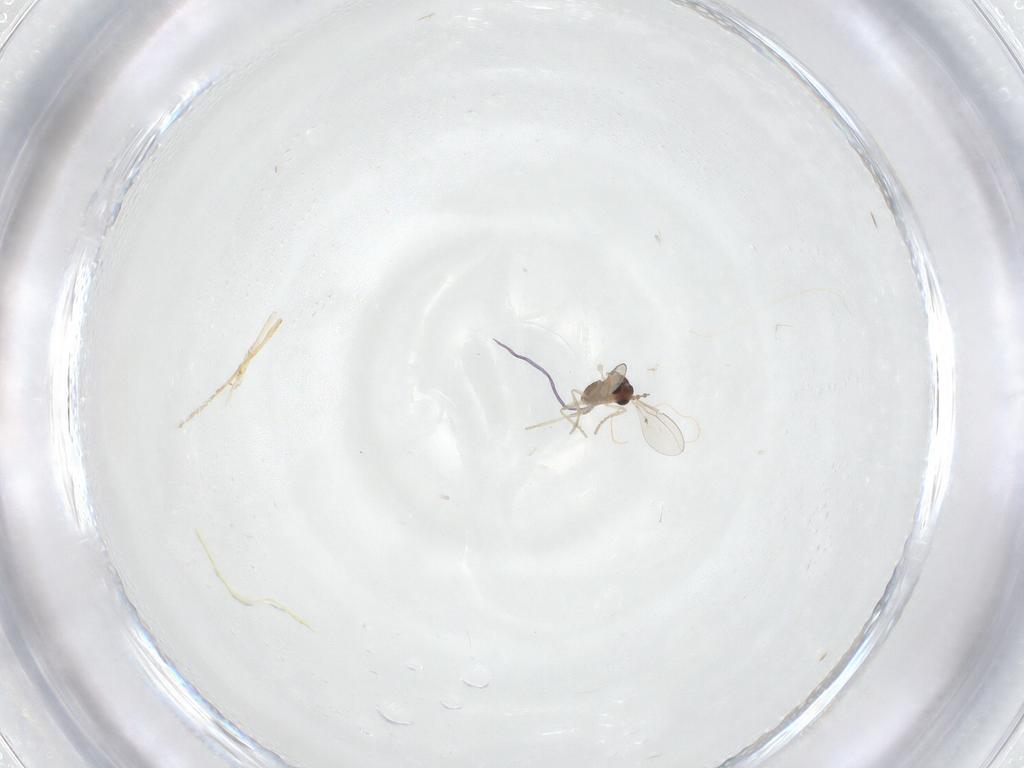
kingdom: Animalia
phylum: Arthropoda
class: Insecta
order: Diptera
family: Cecidomyiidae
